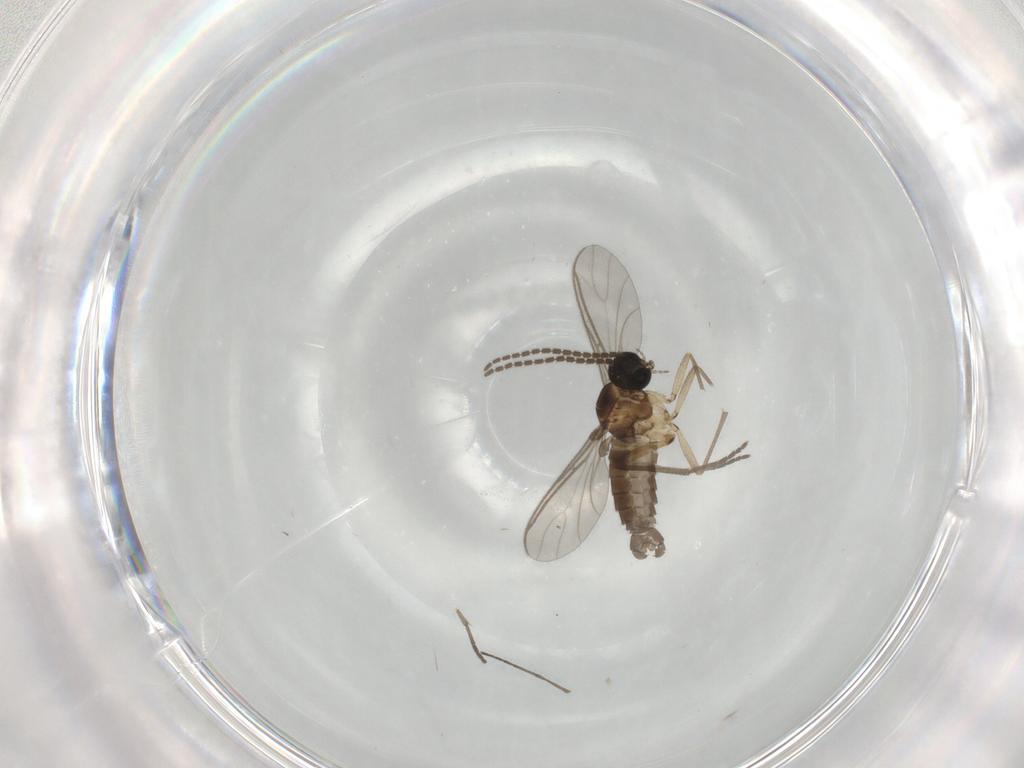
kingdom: Animalia
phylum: Arthropoda
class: Insecta
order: Diptera
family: Sciaridae
